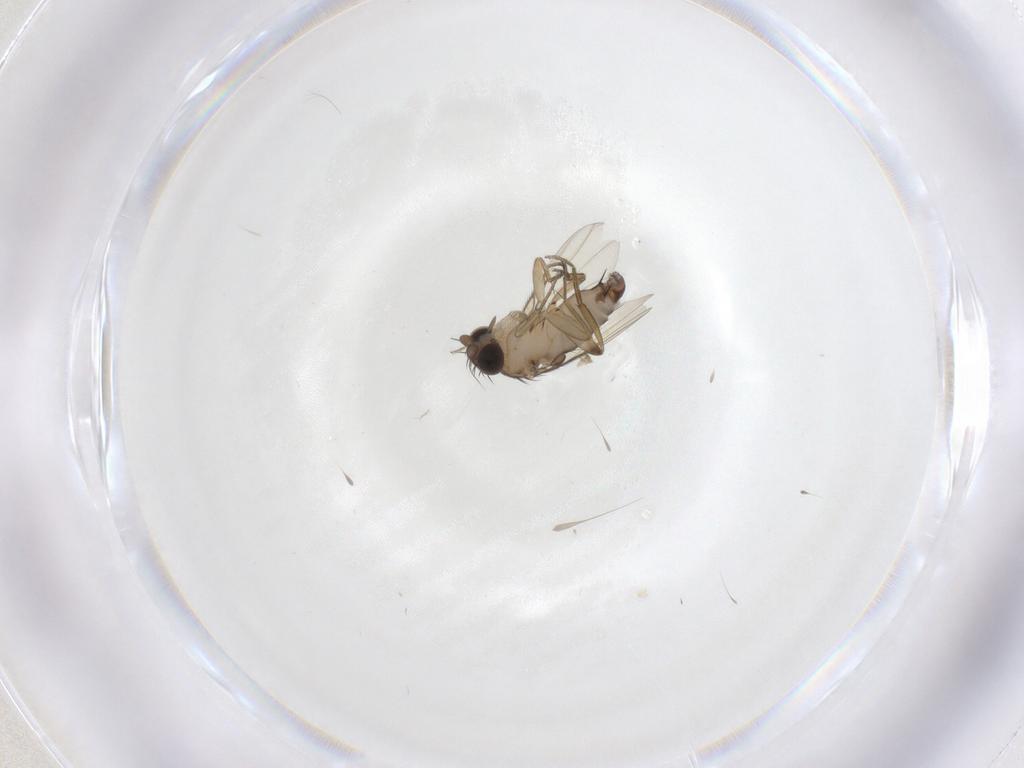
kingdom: Animalia
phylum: Arthropoda
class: Insecta
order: Diptera
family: Phoridae
